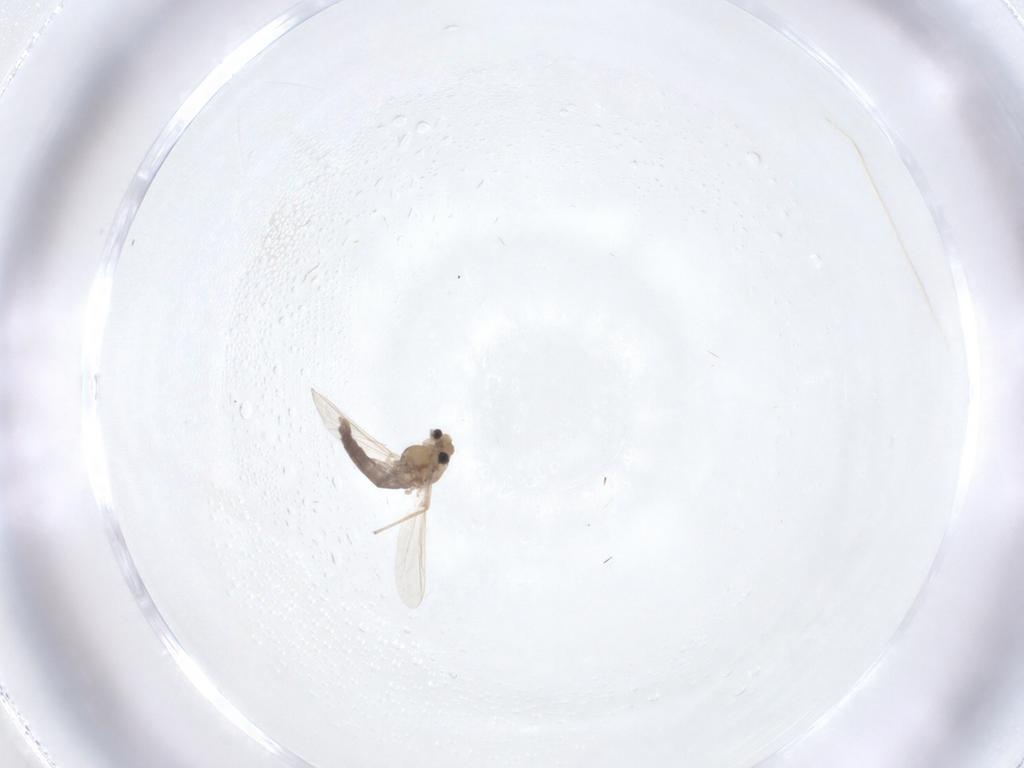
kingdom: Animalia
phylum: Arthropoda
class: Insecta
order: Diptera
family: Chironomidae
